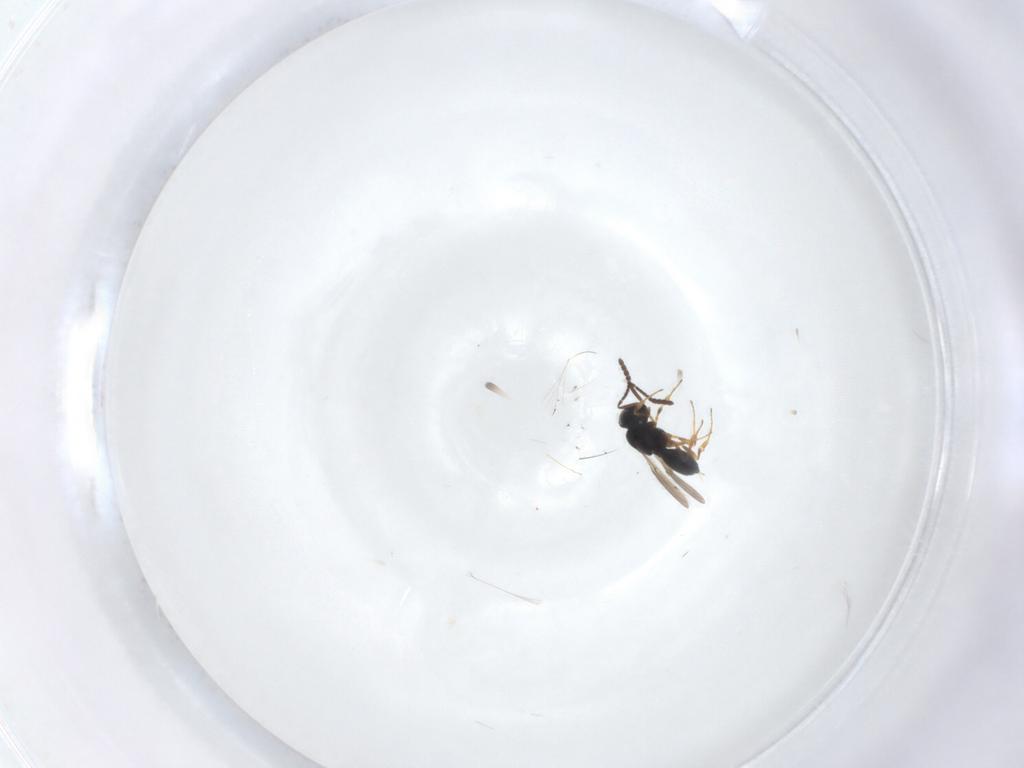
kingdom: Animalia
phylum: Arthropoda
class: Insecta
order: Hymenoptera
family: Scelionidae
